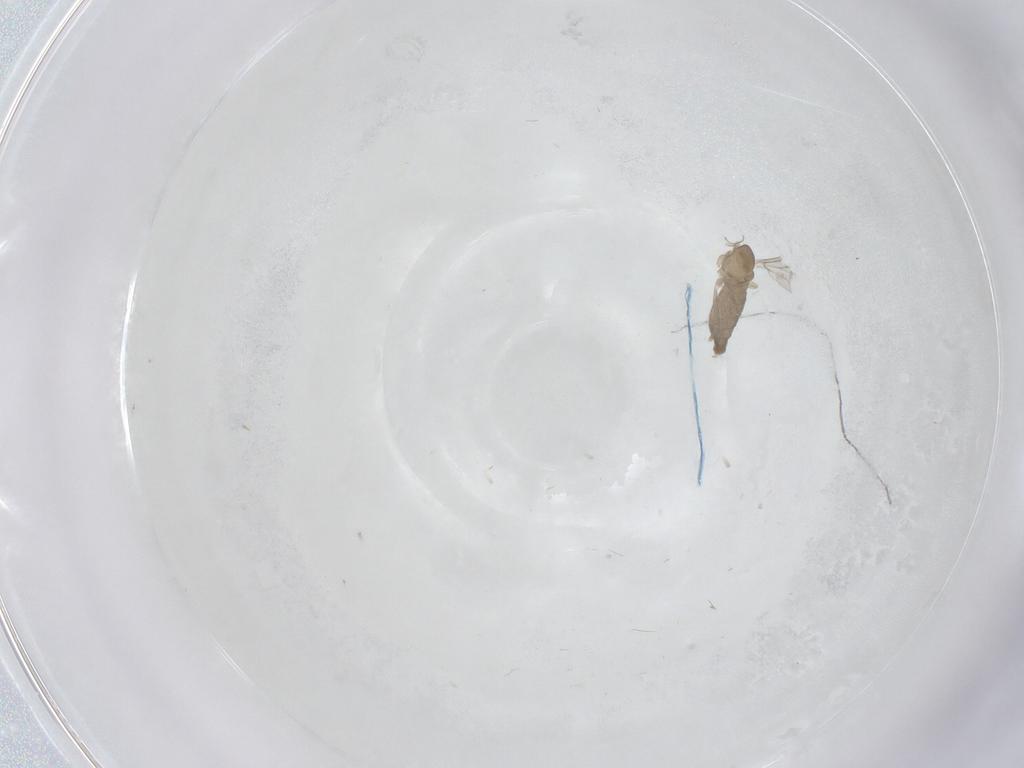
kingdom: Animalia
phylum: Arthropoda
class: Insecta
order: Diptera
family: Cecidomyiidae
